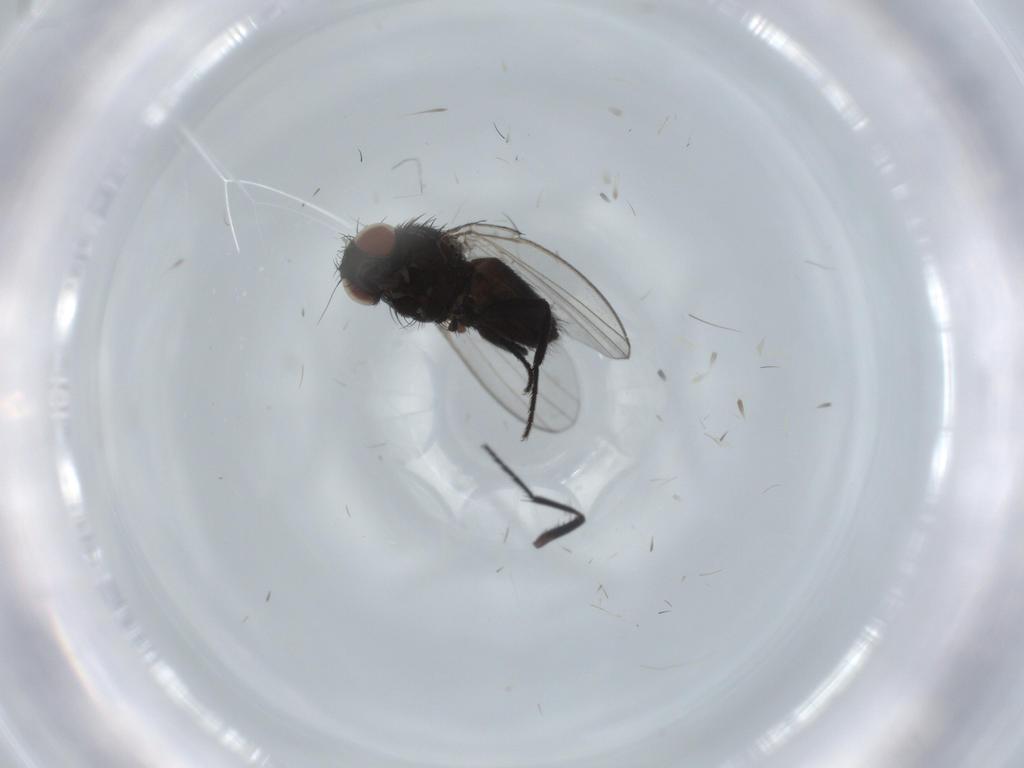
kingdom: Animalia
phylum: Arthropoda
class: Insecta
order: Diptera
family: Milichiidae
